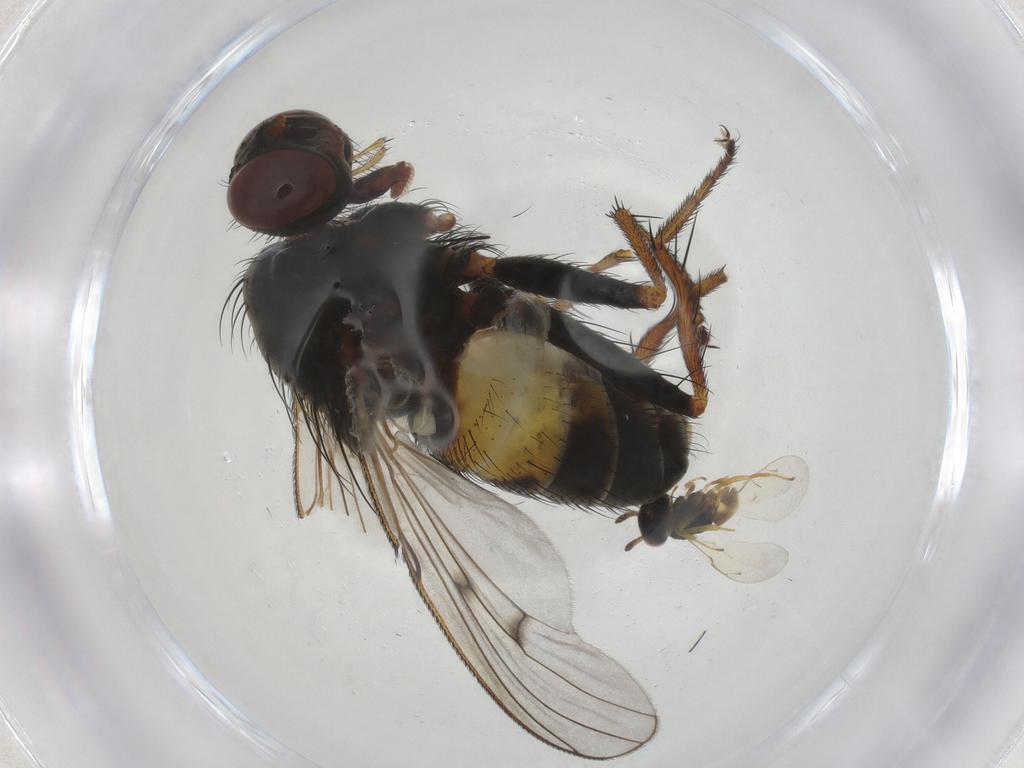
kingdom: Animalia
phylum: Arthropoda
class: Insecta
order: Diptera
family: Muscidae
